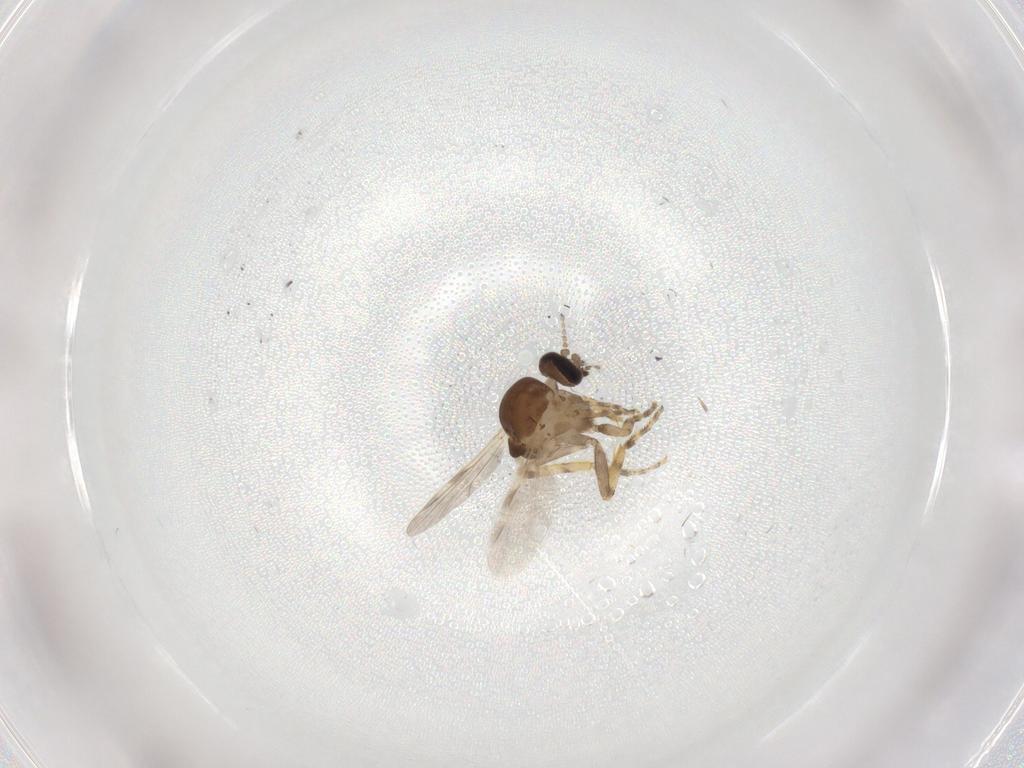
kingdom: Animalia
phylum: Arthropoda
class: Insecta
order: Diptera
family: Ceratopogonidae
